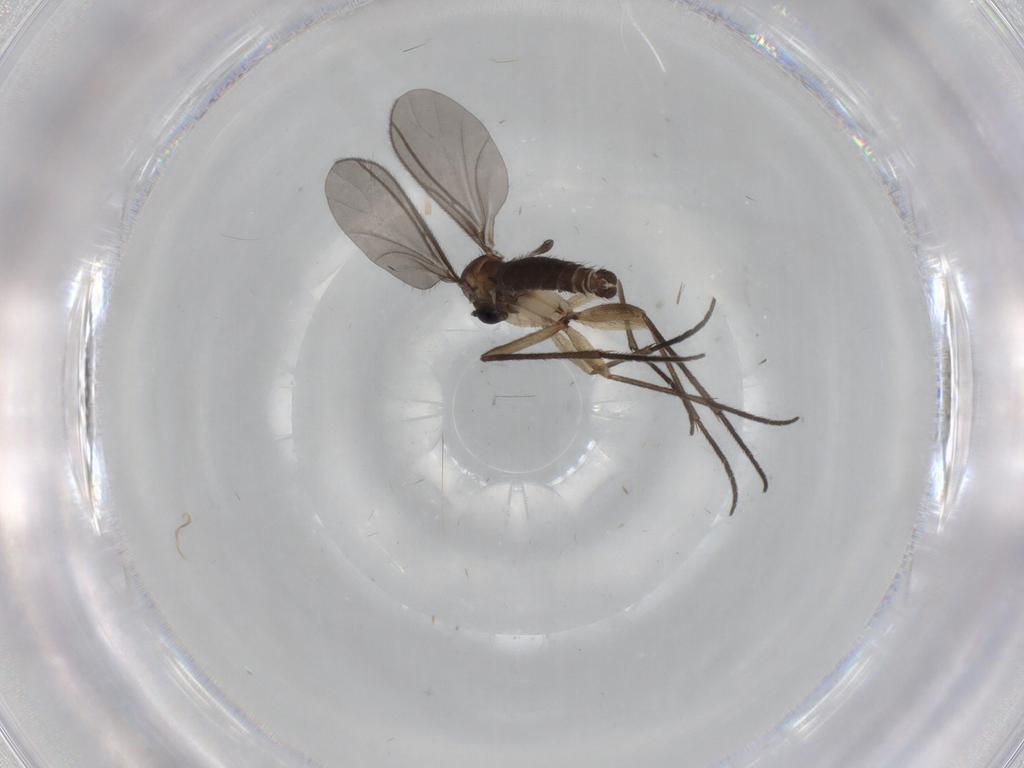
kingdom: Animalia
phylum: Arthropoda
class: Insecta
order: Diptera
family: Sciaridae
